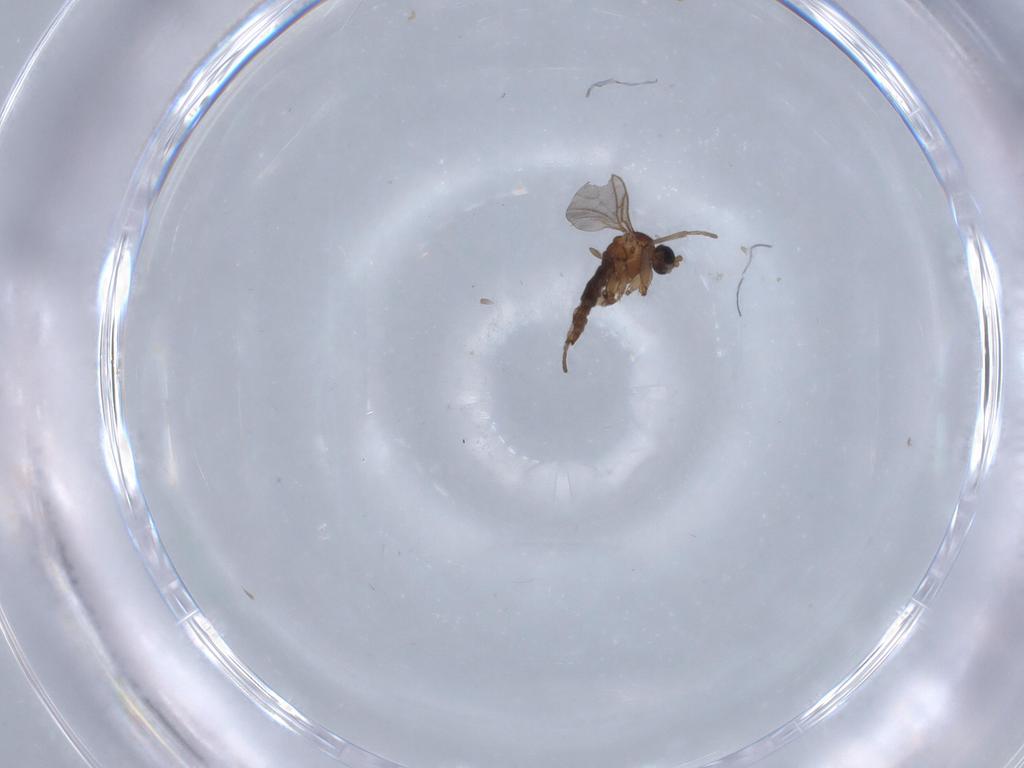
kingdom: Animalia
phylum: Arthropoda
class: Insecta
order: Diptera
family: Sciaridae
